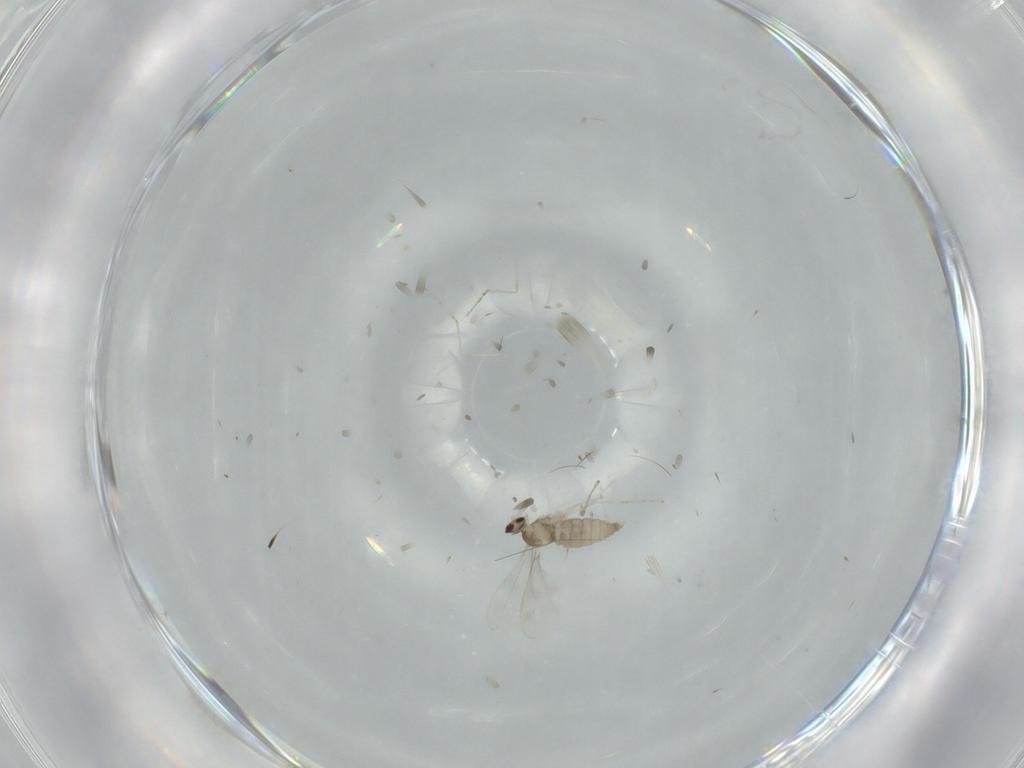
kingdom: Animalia
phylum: Arthropoda
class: Insecta
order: Diptera
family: Cecidomyiidae
